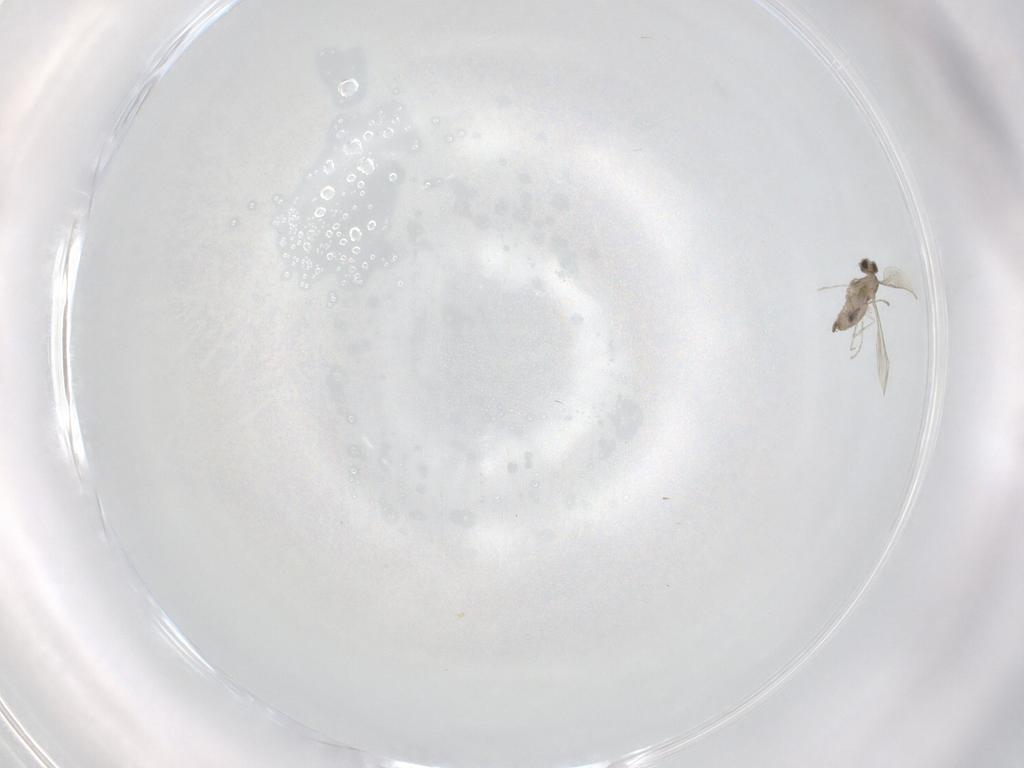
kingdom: Animalia
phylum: Arthropoda
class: Insecta
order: Diptera
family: Cecidomyiidae
